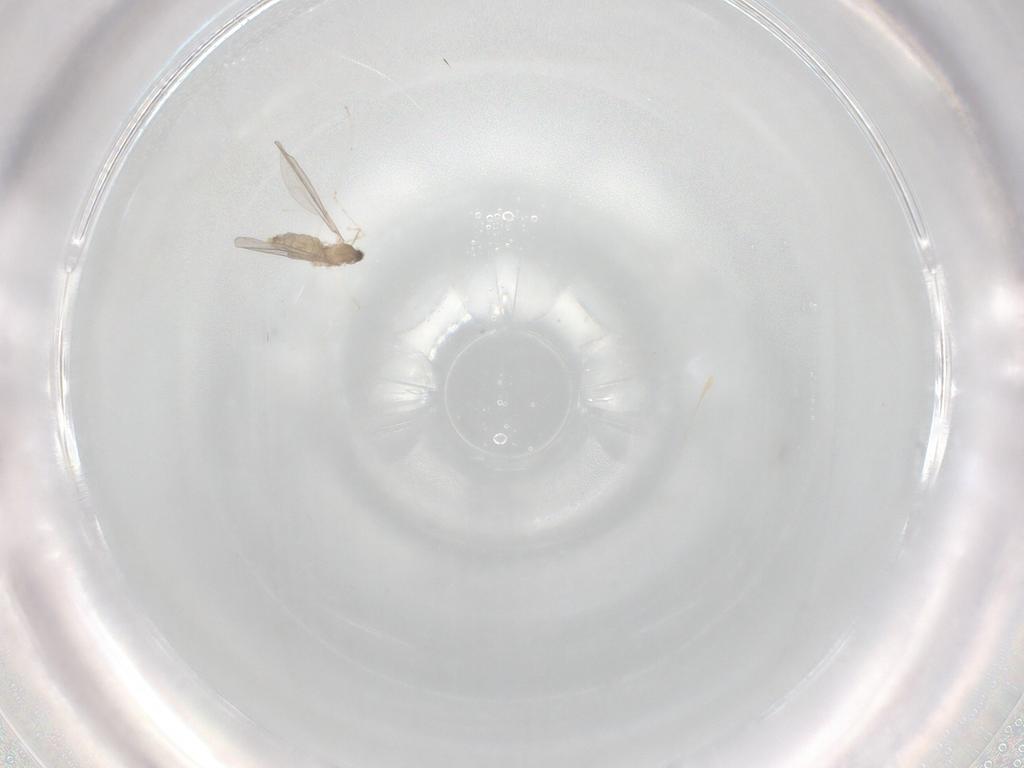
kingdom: Animalia
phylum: Arthropoda
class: Insecta
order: Diptera
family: Cecidomyiidae
